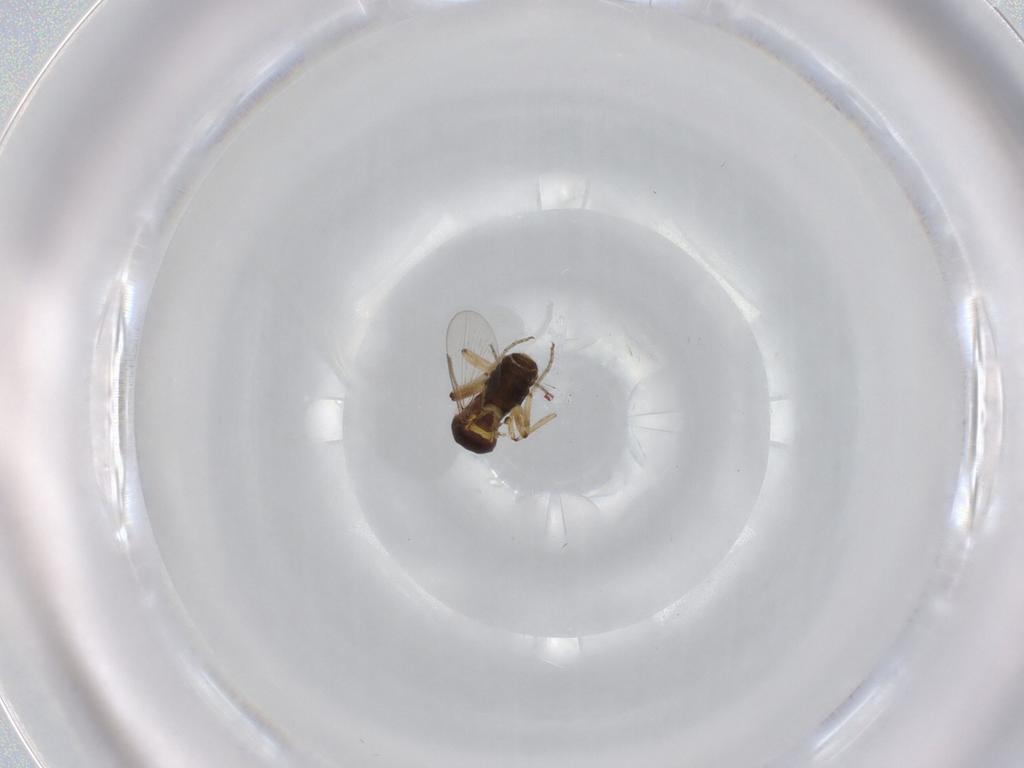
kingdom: Animalia
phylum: Arthropoda
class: Insecta
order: Diptera
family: Ceratopogonidae
